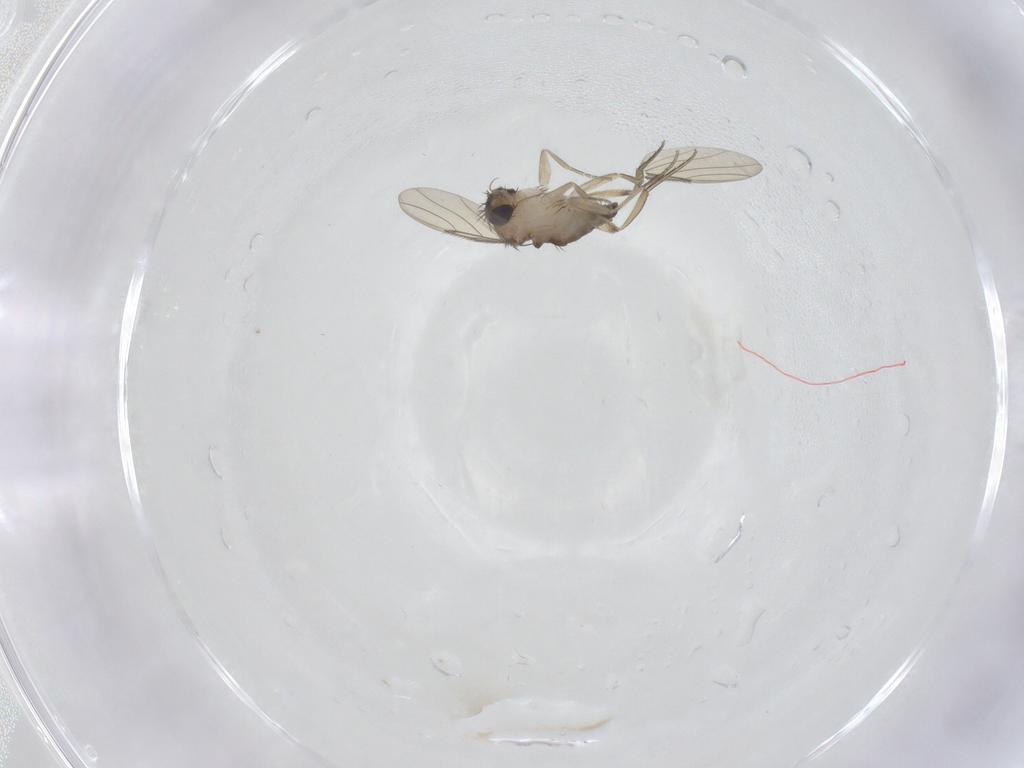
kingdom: Animalia
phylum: Arthropoda
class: Insecta
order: Diptera
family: Phoridae
